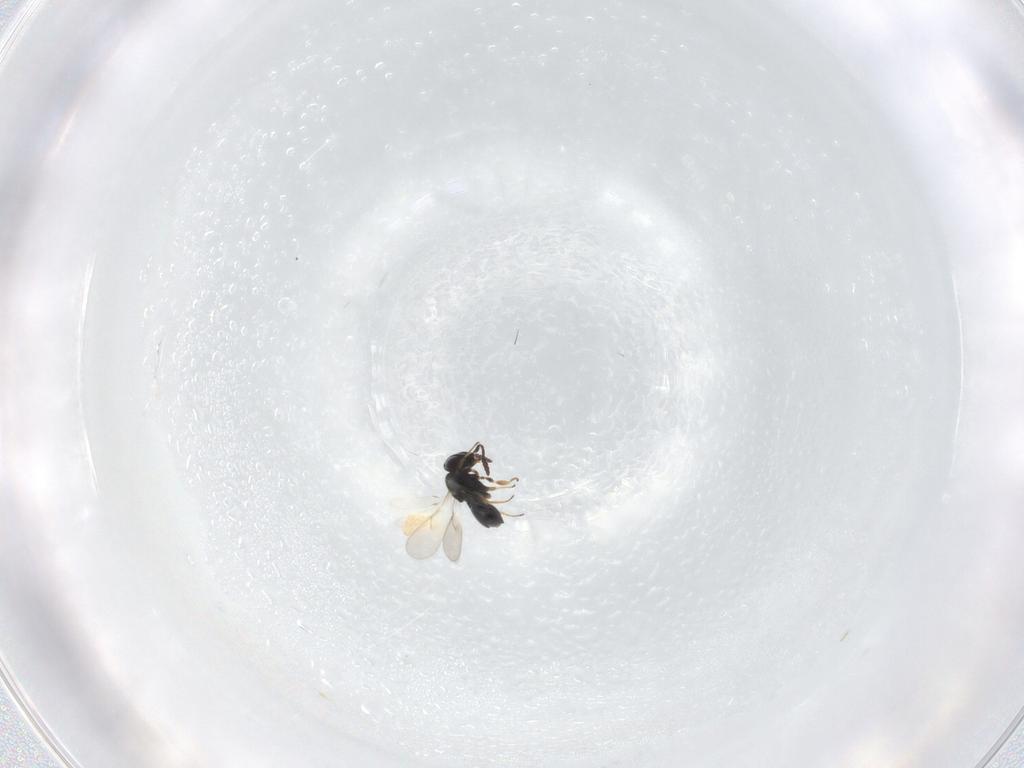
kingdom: Animalia
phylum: Arthropoda
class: Insecta
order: Hymenoptera
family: Scelionidae
